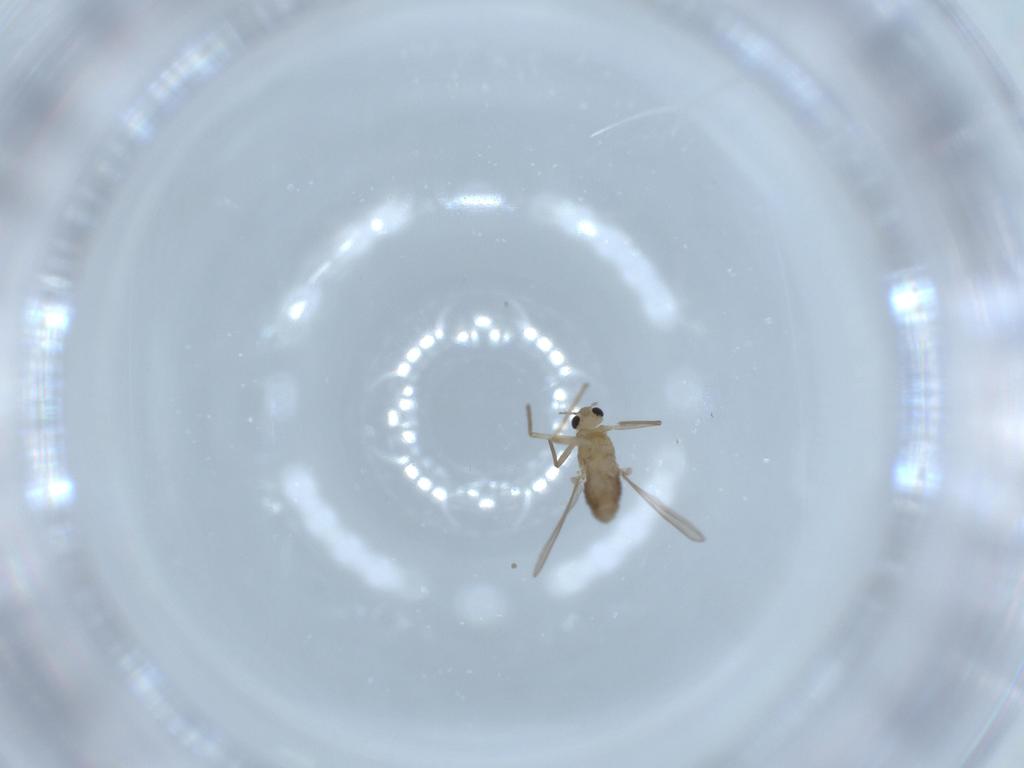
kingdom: Animalia
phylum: Arthropoda
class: Insecta
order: Diptera
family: Chironomidae
